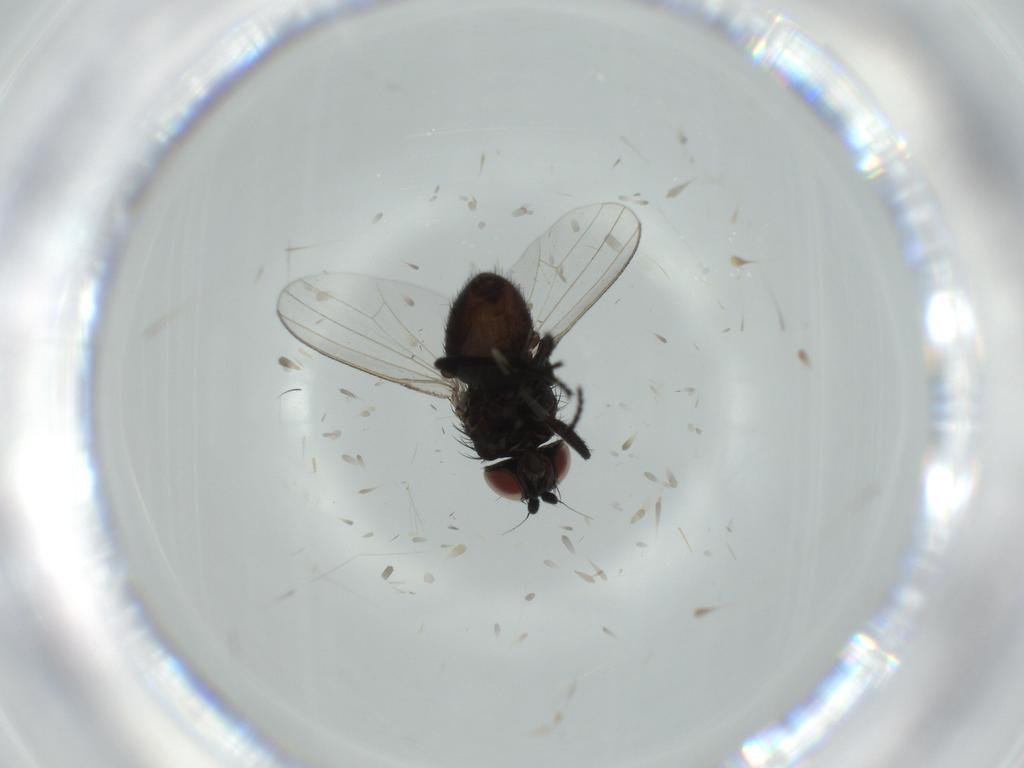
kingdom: Animalia
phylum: Arthropoda
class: Insecta
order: Diptera
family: Milichiidae
